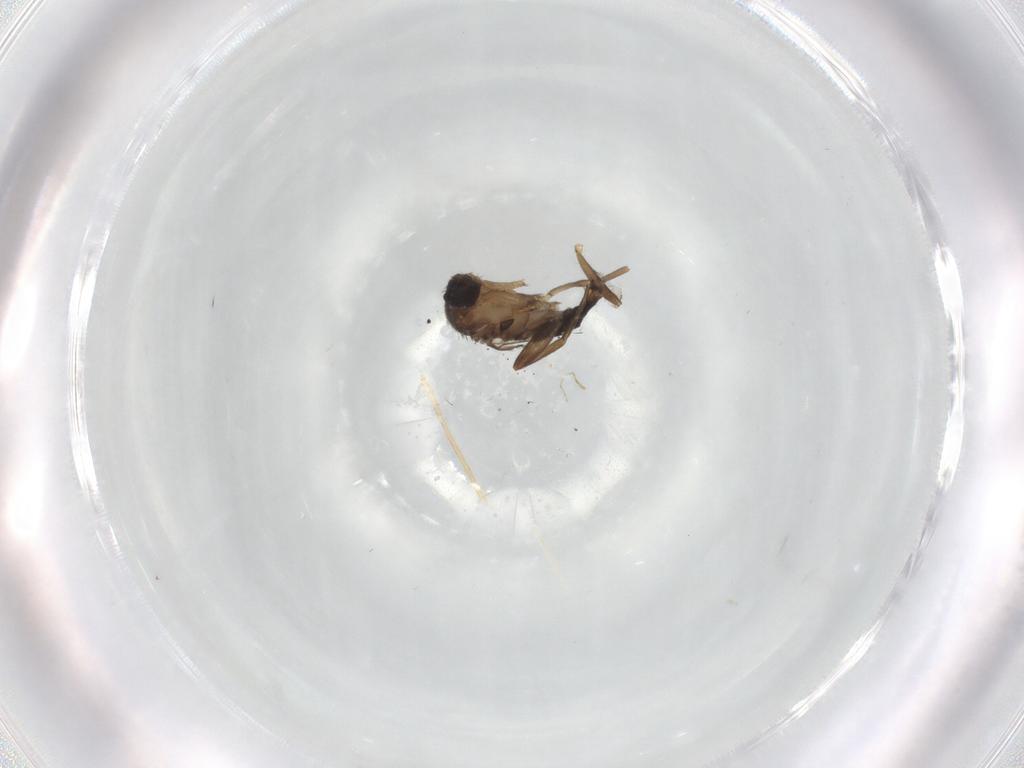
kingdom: Animalia
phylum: Arthropoda
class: Insecta
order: Diptera
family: Phoridae
